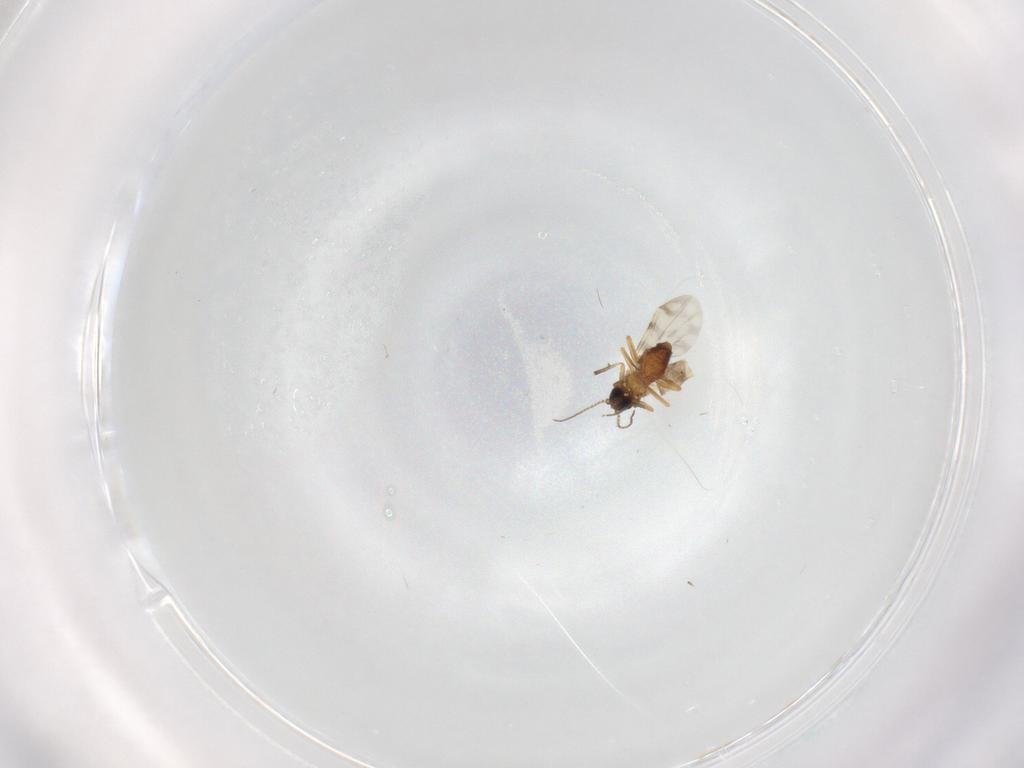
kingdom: Animalia
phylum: Arthropoda
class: Insecta
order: Diptera
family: Ceratopogonidae
